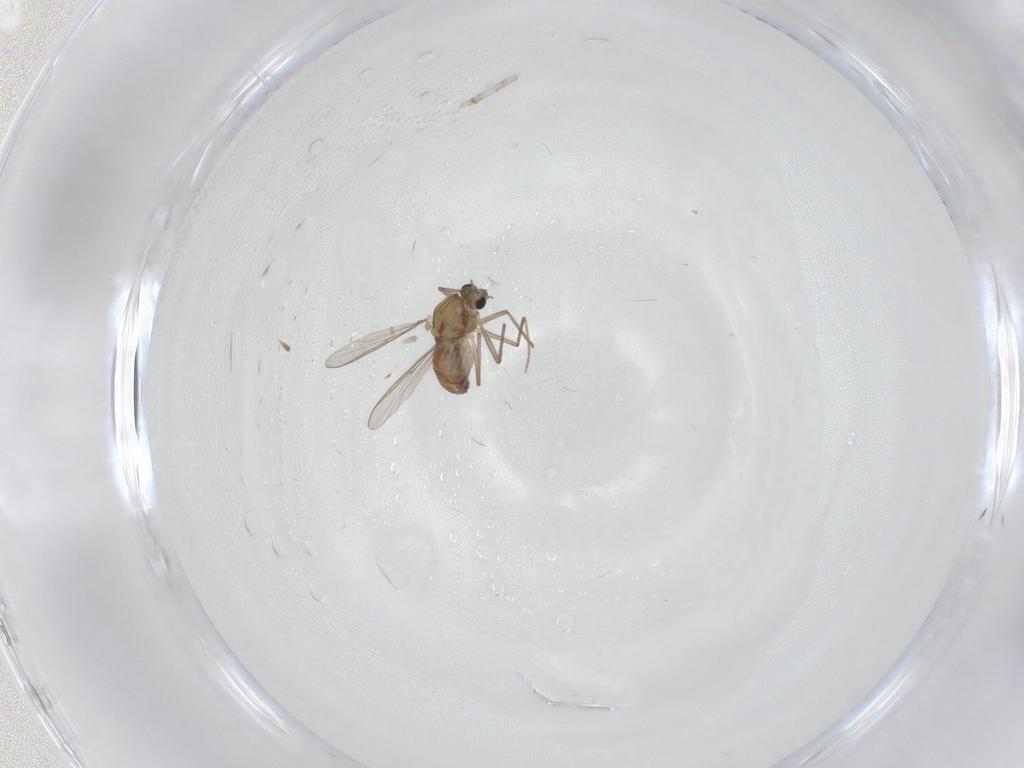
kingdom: Animalia
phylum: Arthropoda
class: Insecta
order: Diptera
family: Chironomidae
